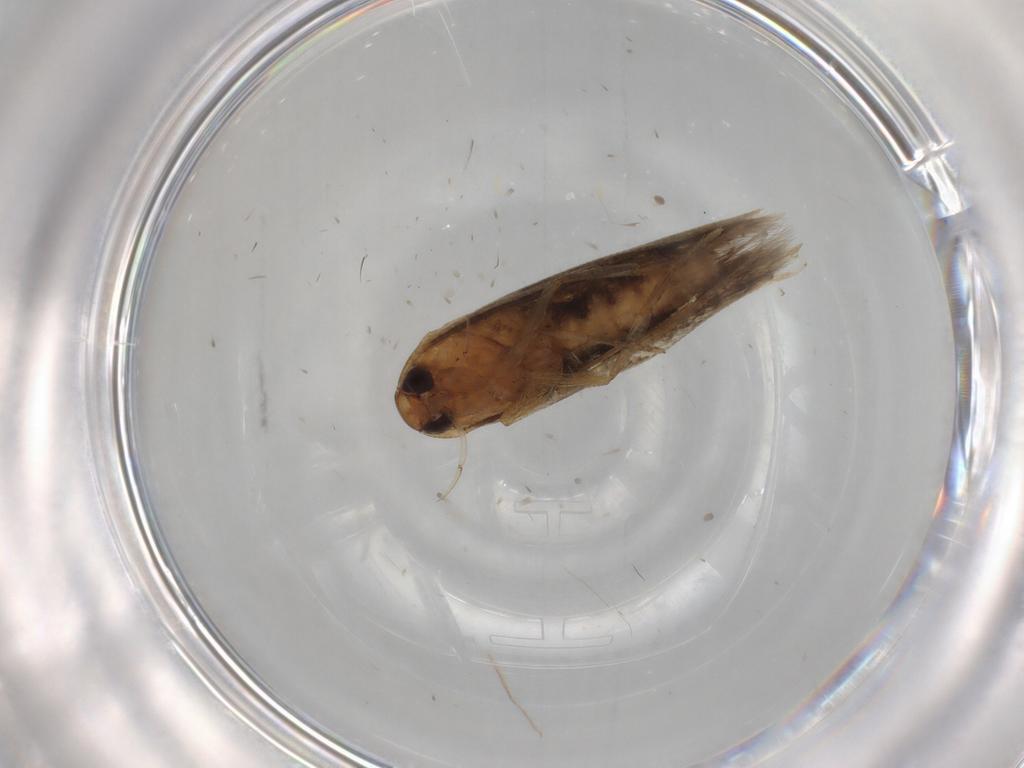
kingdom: Animalia
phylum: Arthropoda
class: Insecta
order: Lepidoptera
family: Cosmopterigidae
